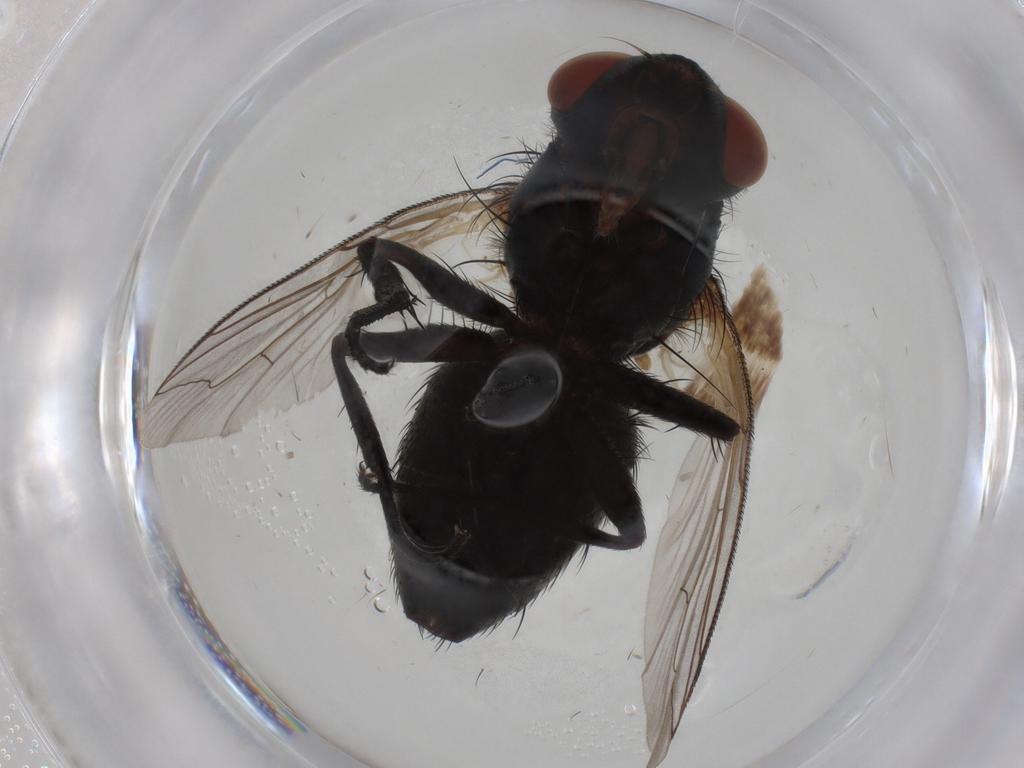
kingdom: Animalia
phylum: Arthropoda
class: Insecta
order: Diptera
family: Sarcophagidae
